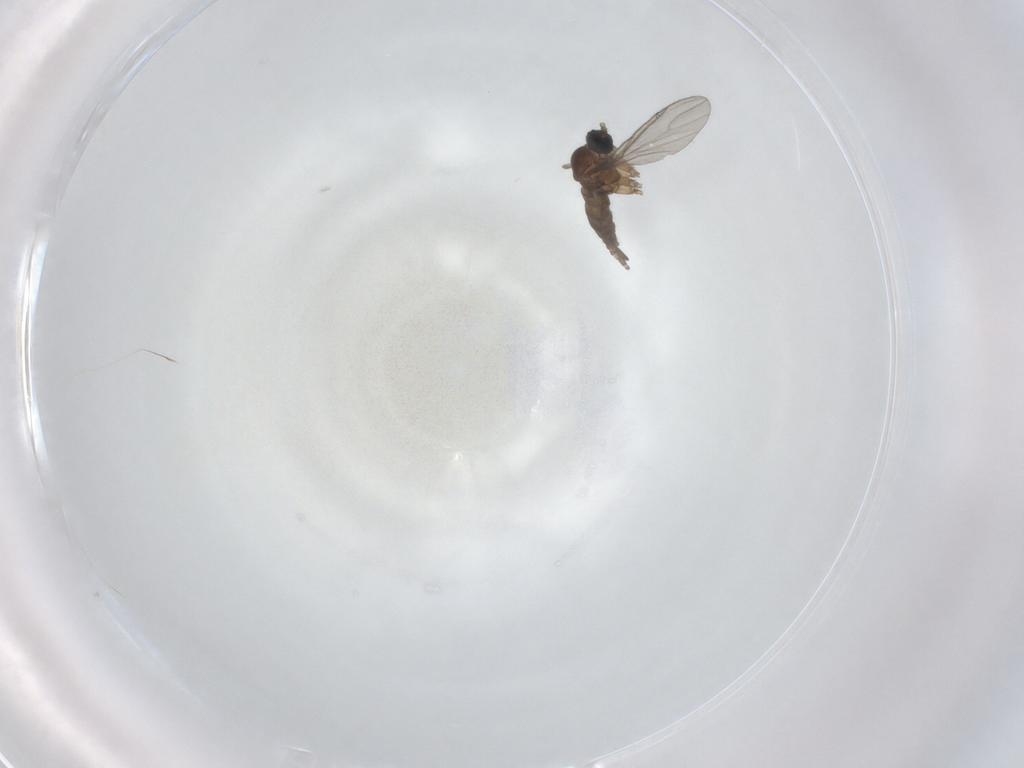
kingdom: Animalia
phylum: Arthropoda
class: Insecta
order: Diptera
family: Sciaridae
